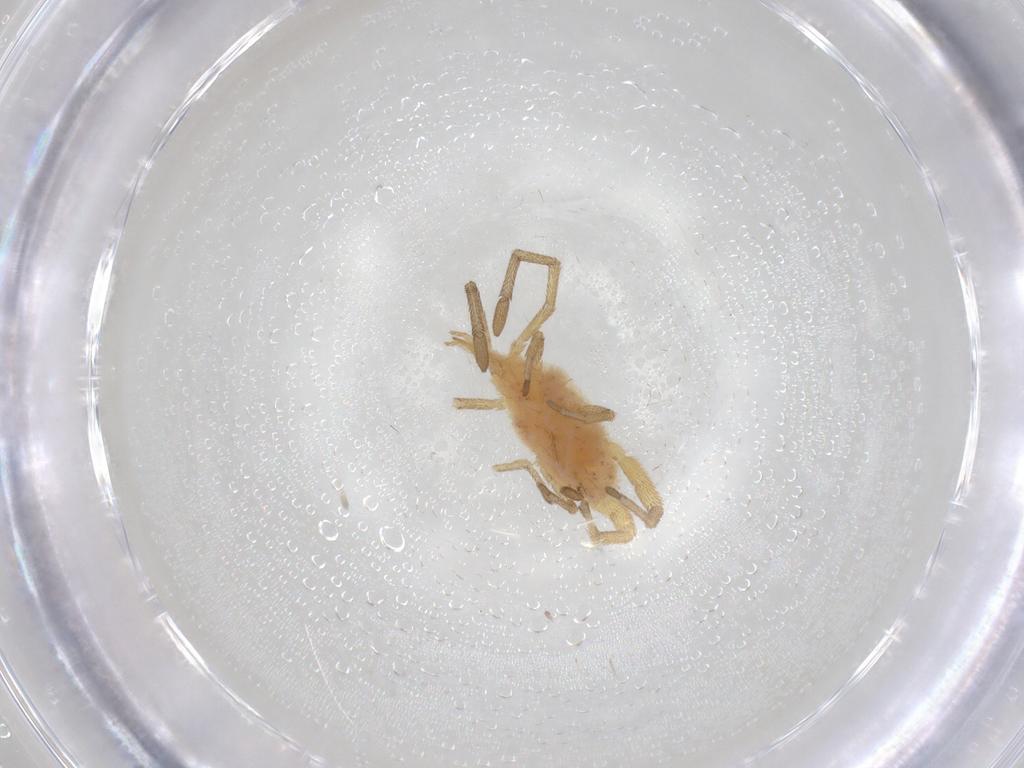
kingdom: Animalia
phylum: Arthropoda
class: Arachnida
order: Trombidiformes
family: Smarididae
